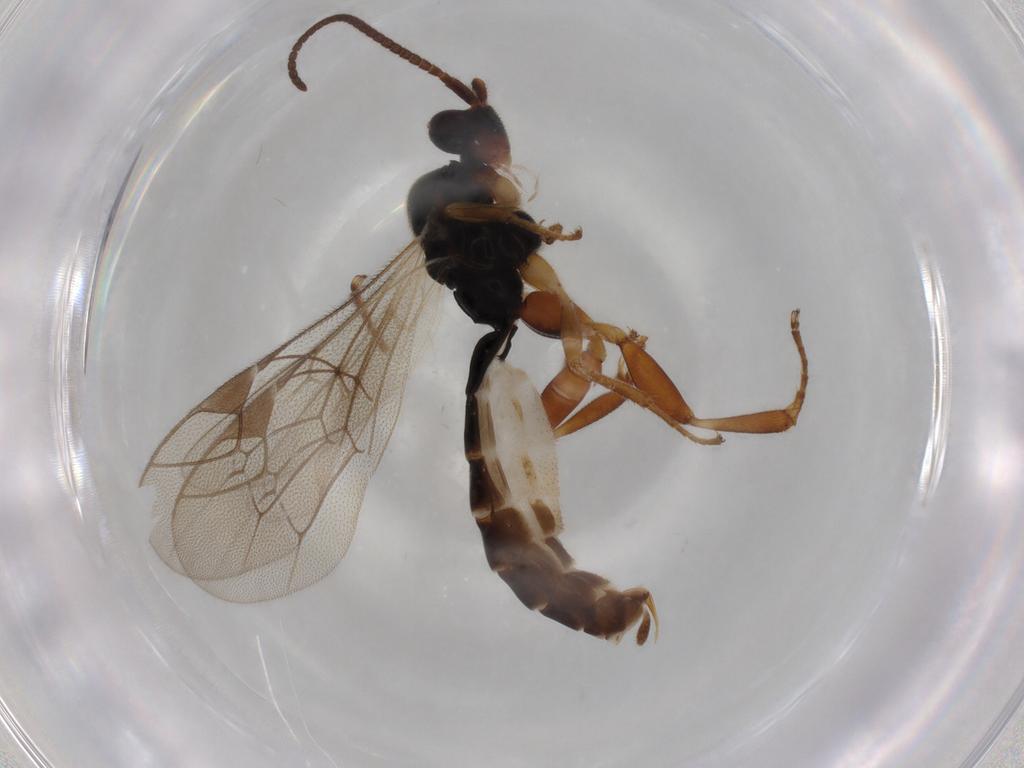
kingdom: Animalia
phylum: Arthropoda
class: Insecta
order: Hymenoptera
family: Ichneumonidae
